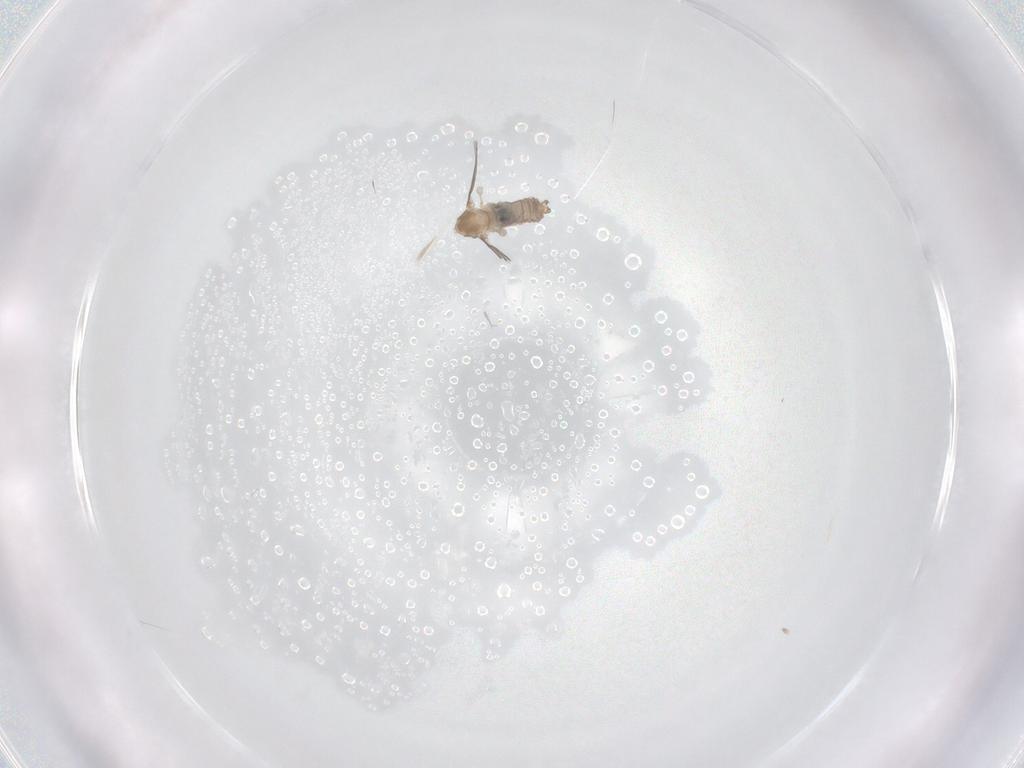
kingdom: Animalia
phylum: Arthropoda
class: Insecta
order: Diptera
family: Cecidomyiidae
